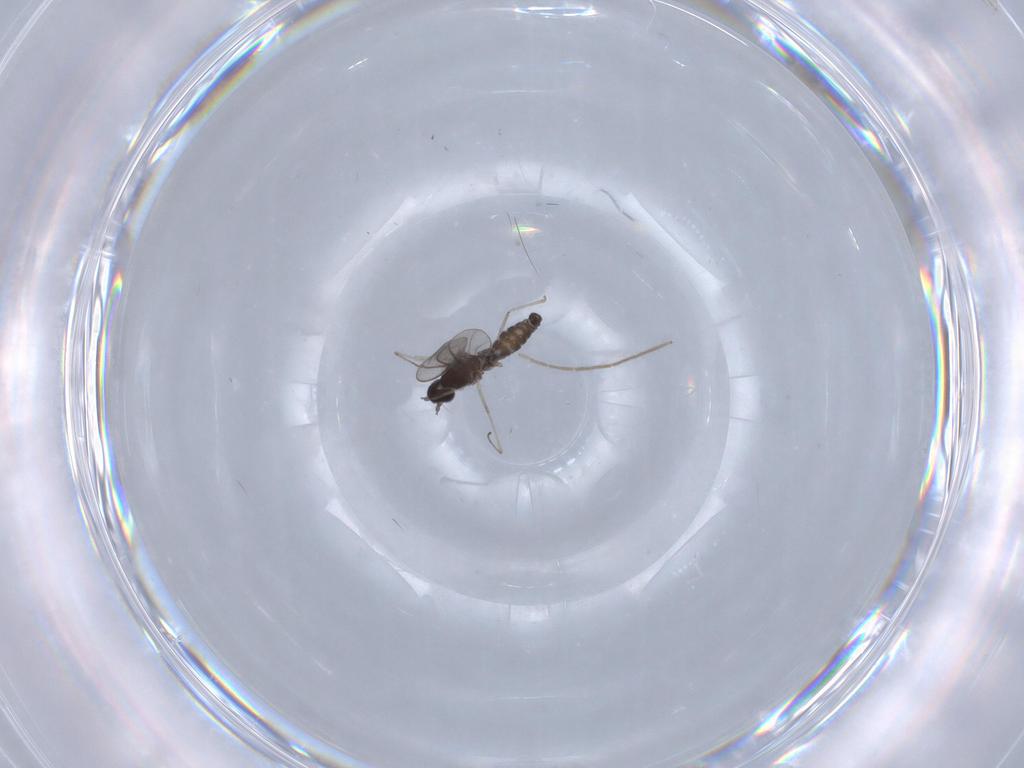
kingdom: Animalia
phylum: Arthropoda
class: Insecta
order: Diptera
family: Cecidomyiidae
